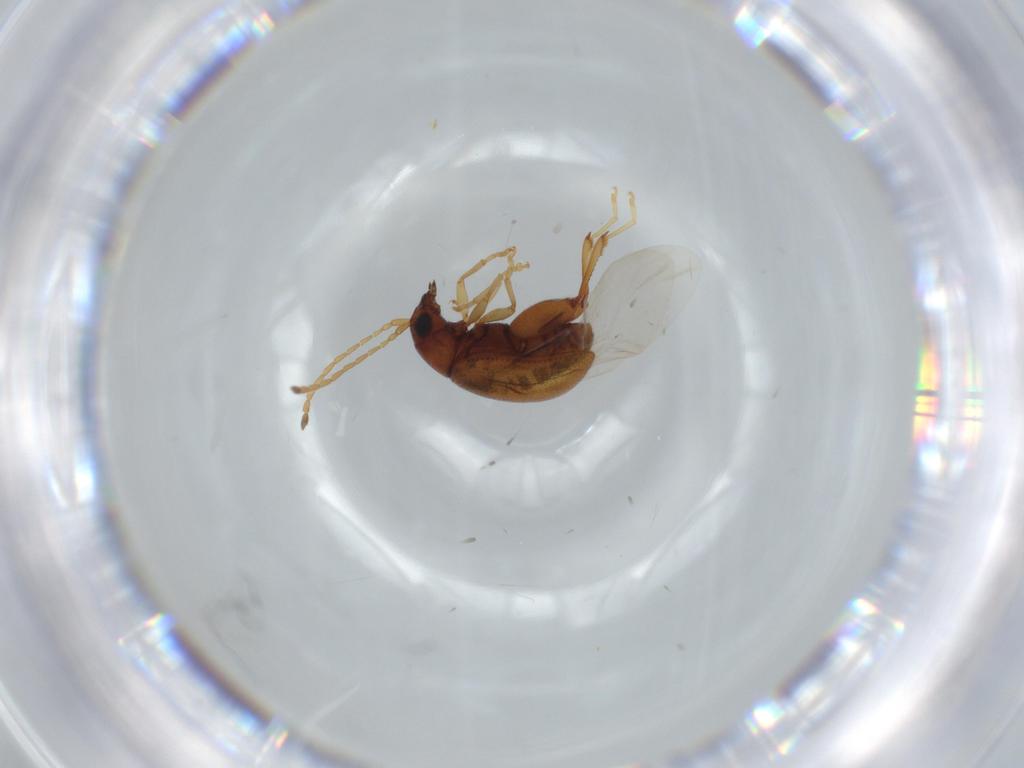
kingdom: Animalia
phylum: Arthropoda
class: Insecta
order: Coleoptera
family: Chrysomelidae
